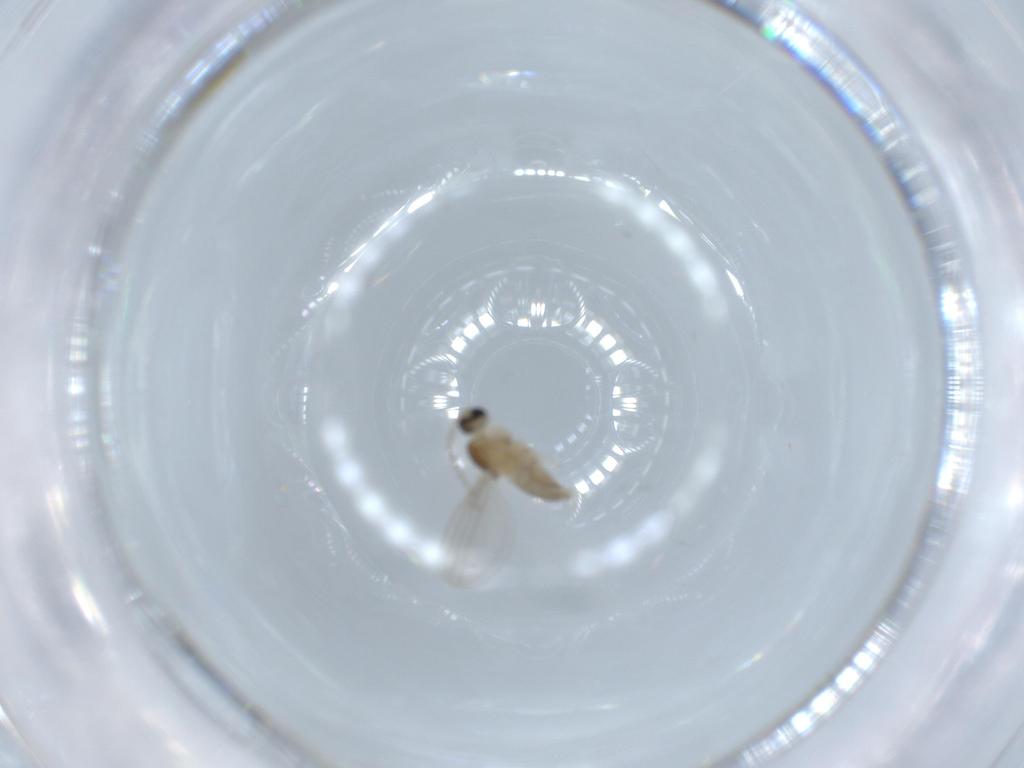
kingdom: Animalia
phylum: Arthropoda
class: Insecta
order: Diptera
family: Cecidomyiidae
